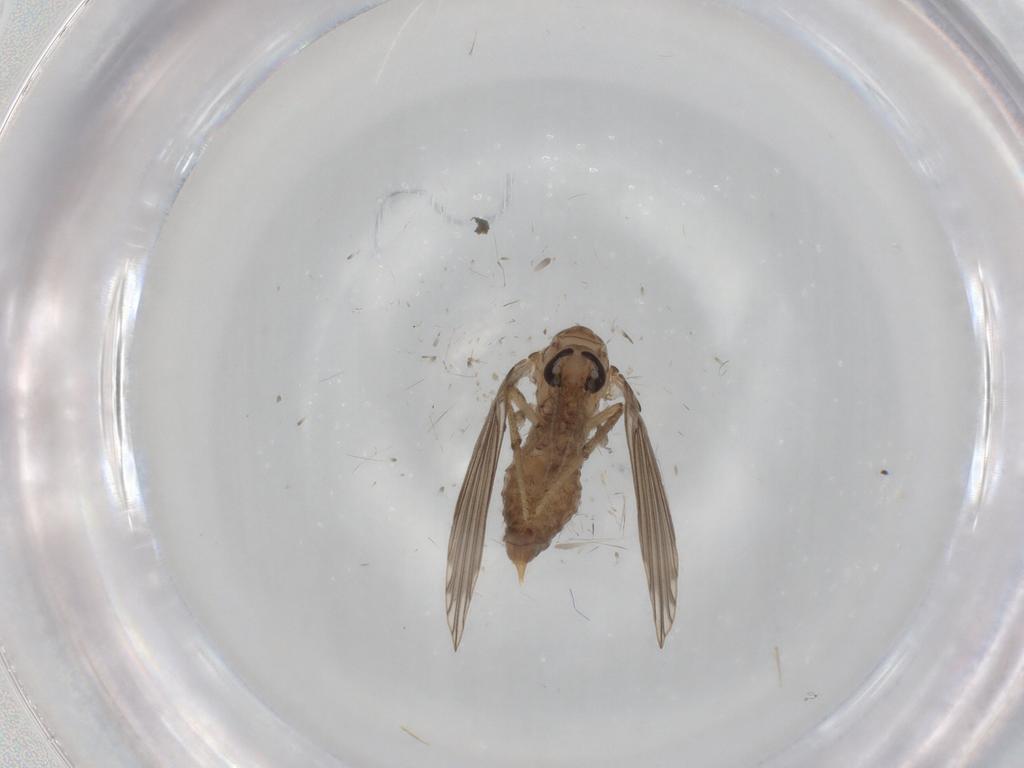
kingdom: Animalia
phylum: Arthropoda
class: Insecta
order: Diptera
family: Psychodidae
